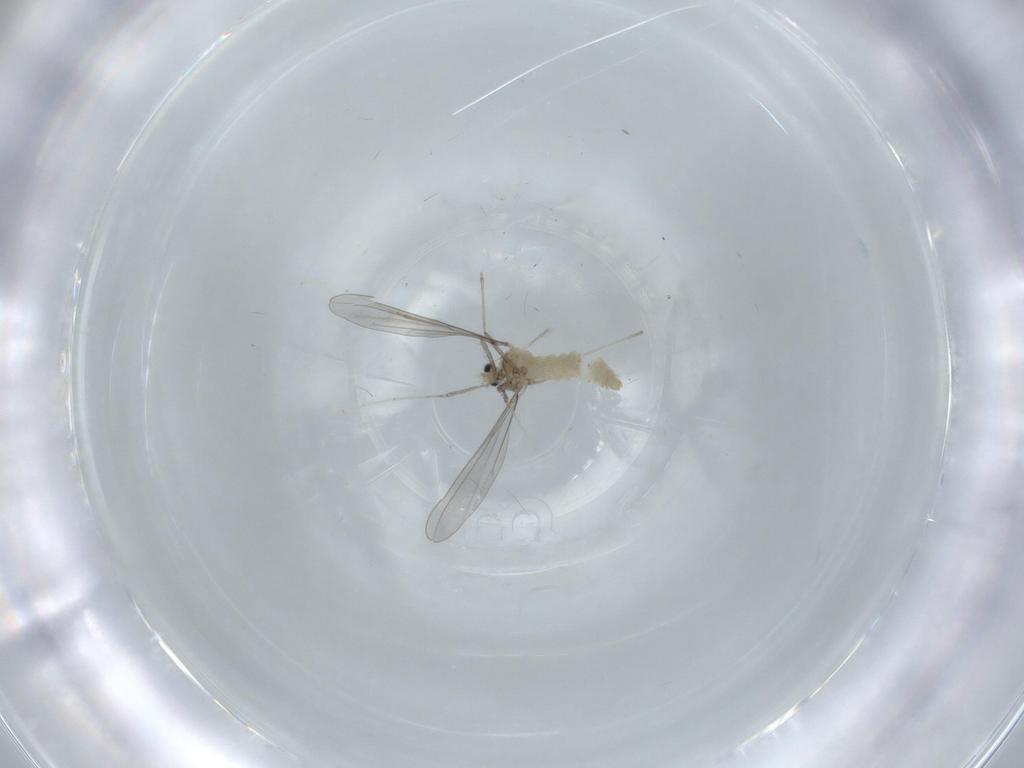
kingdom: Animalia
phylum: Arthropoda
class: Insecta
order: Diptera
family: Cecidomyiidae
